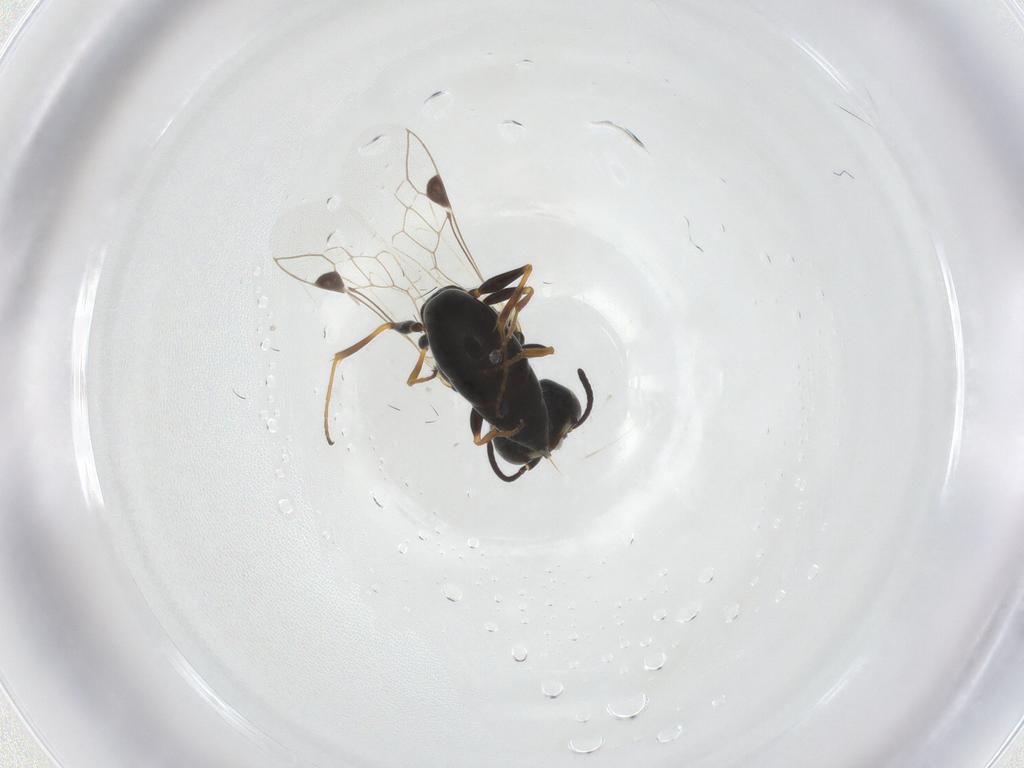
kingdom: Animalia
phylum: Arthropoda
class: Insecta
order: Hymenoptera
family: Crabronidae
